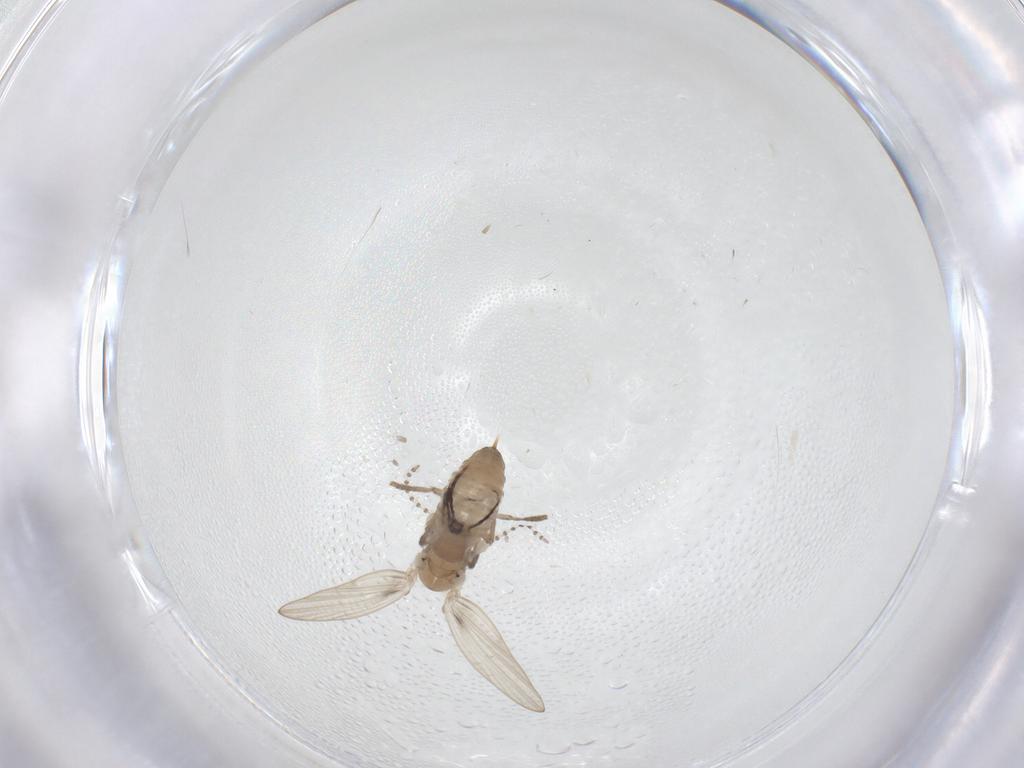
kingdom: Animalia
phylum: Arthropoda
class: Insecta
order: Diptera
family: Psychodidae
